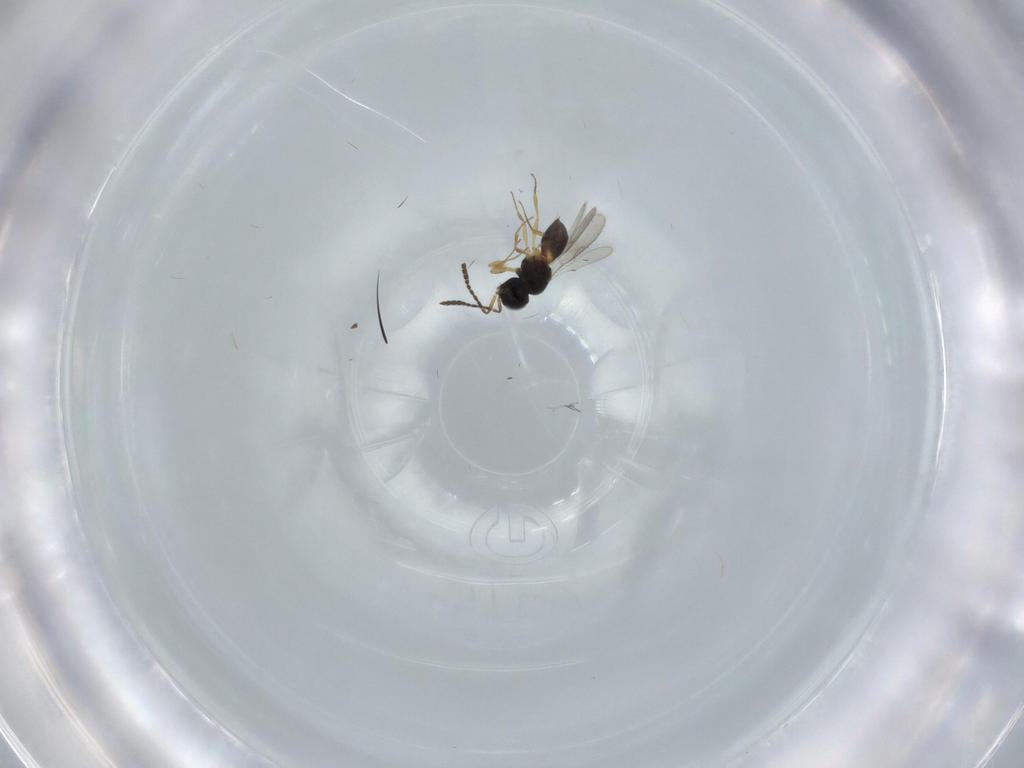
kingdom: Animalia
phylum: Arthropoda
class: Insecta
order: Hymenoptera
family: Scelionidae
